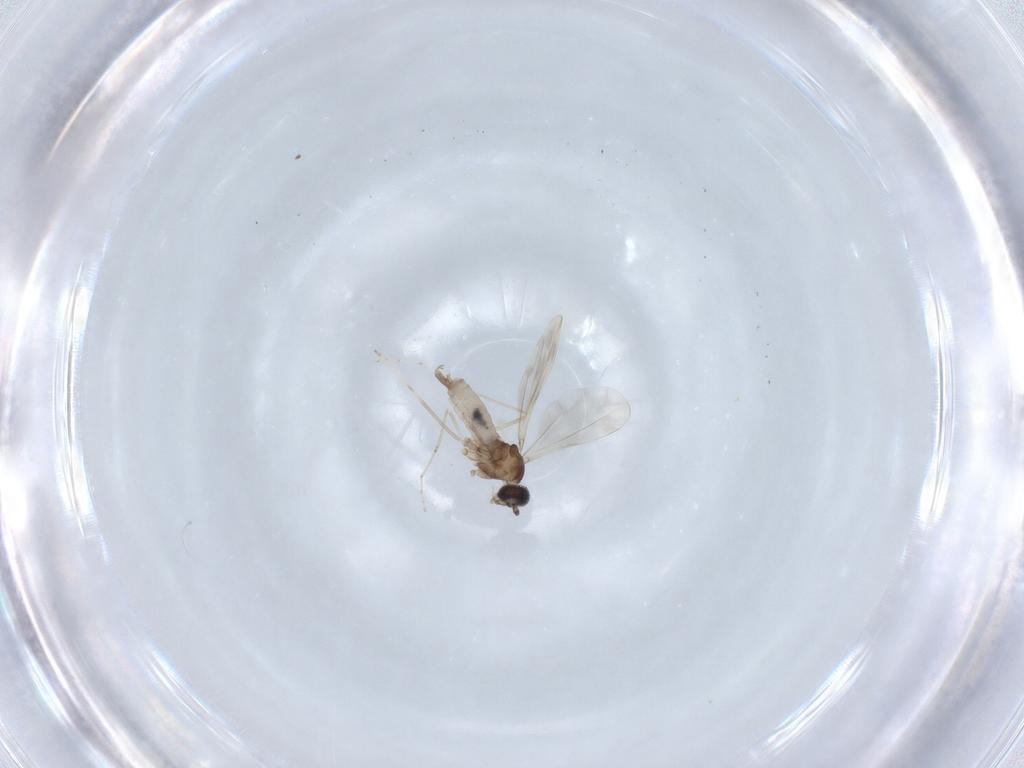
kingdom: Animalia
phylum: Arthropoda
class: Insecta
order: Diptera
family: Cecidomyiidae
